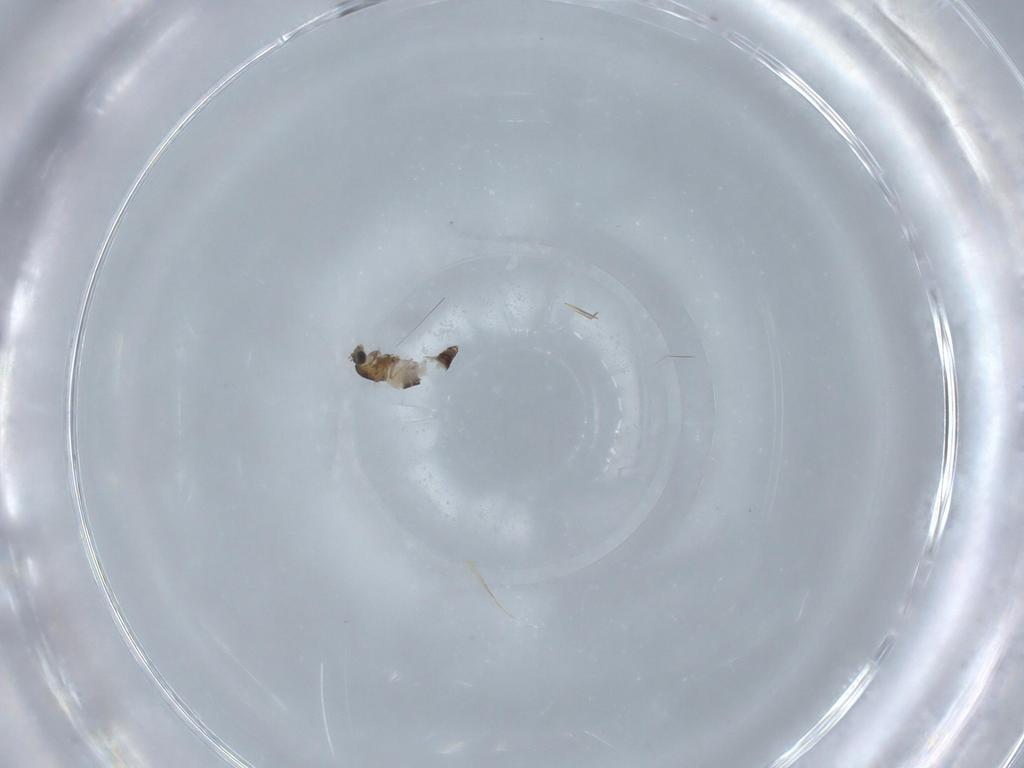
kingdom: Animalia
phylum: Arthropoda
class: Insecta
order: Diptera
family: Chironomidae
